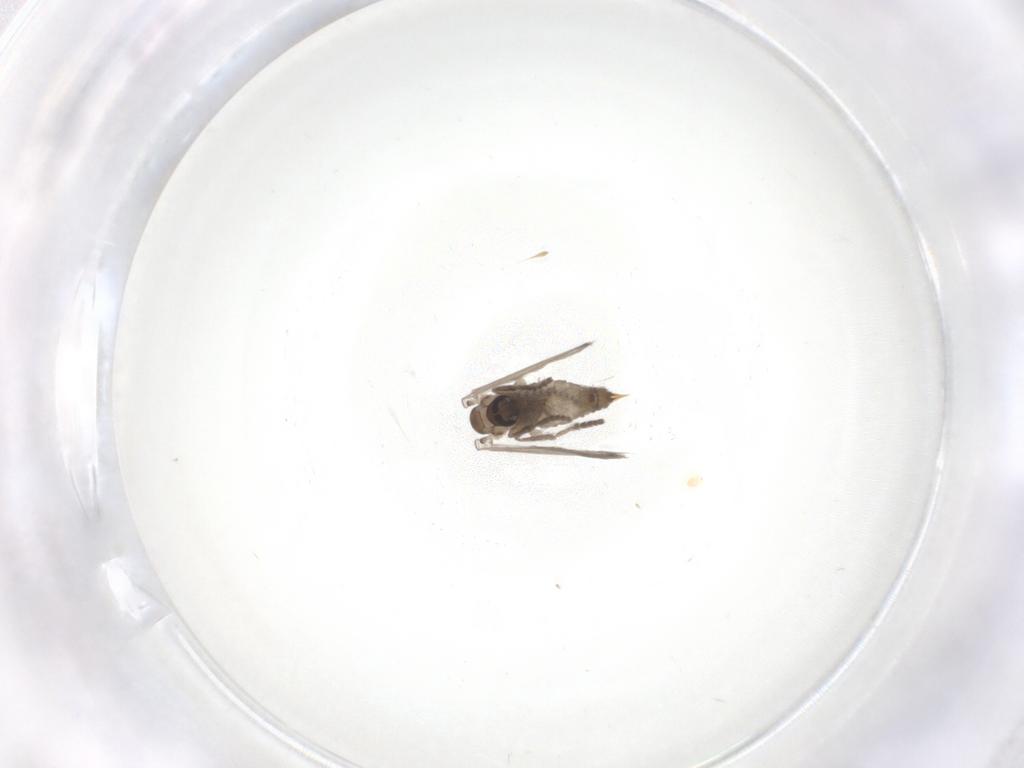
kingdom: Animalia
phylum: Arthropoda
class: Insecta
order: Diptera
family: Psychodidae
